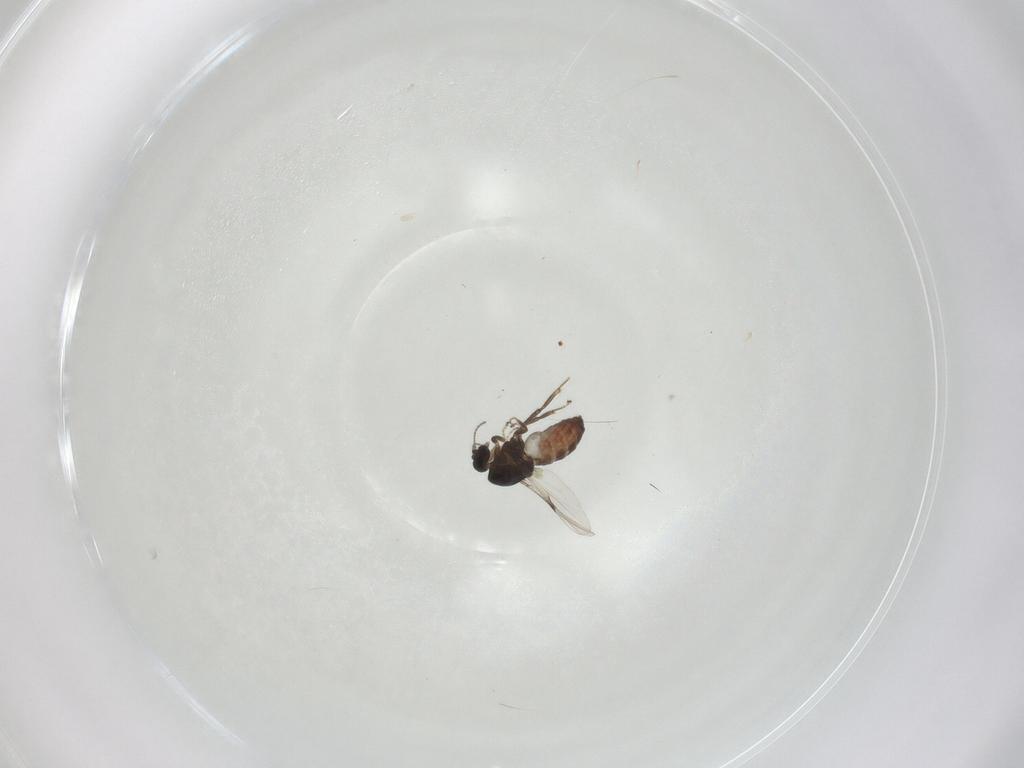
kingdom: Animalia
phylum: Arthropoda
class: Insecta
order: Diptera
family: Ceratopogonidae
